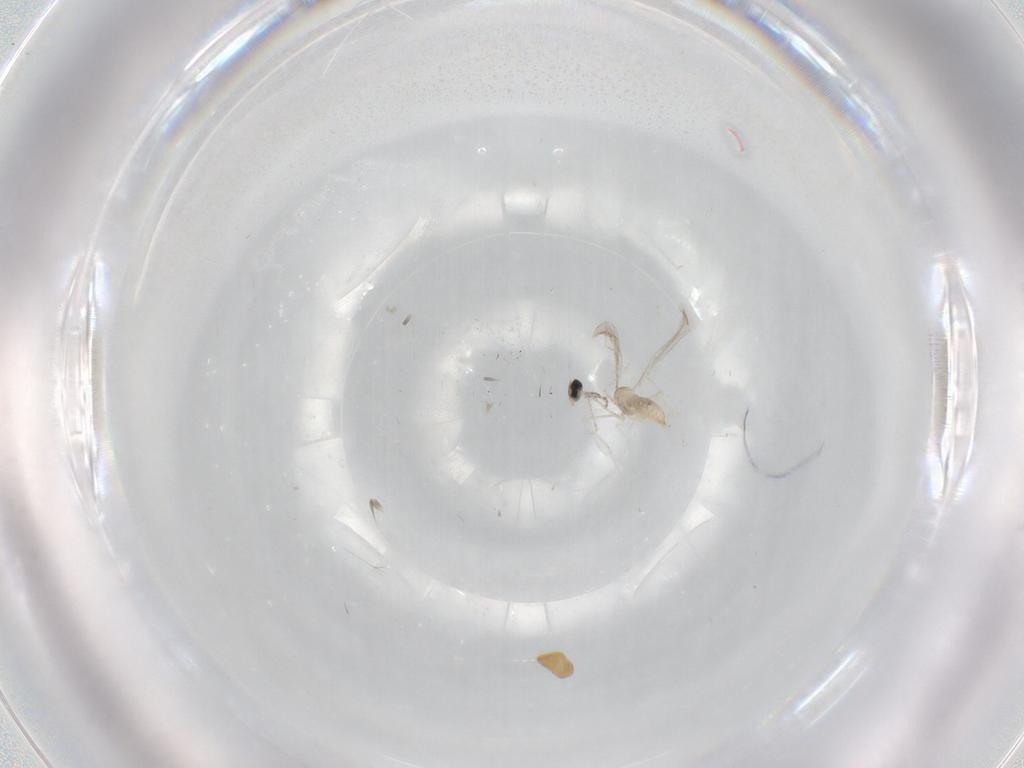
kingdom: Animalia
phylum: Arthropoda
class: Insecta
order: Diptera
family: Cecidomyiidae
